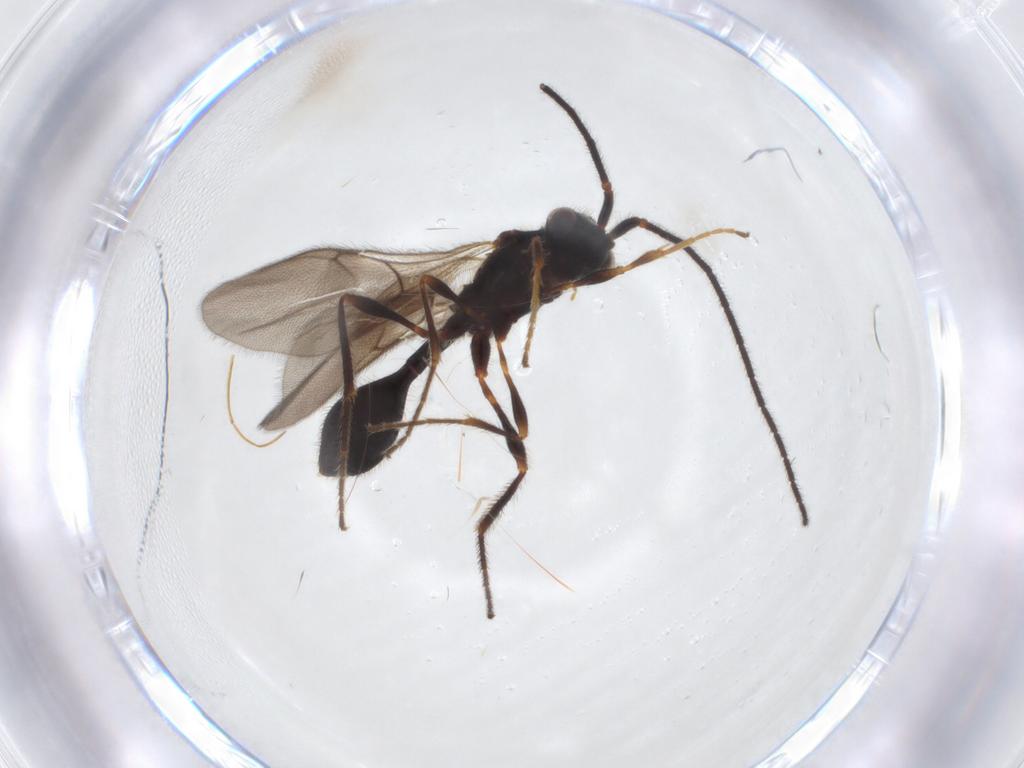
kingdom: Animalia
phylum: Arthropoda
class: Insecta
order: Hymenoptera
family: Diapriidae
